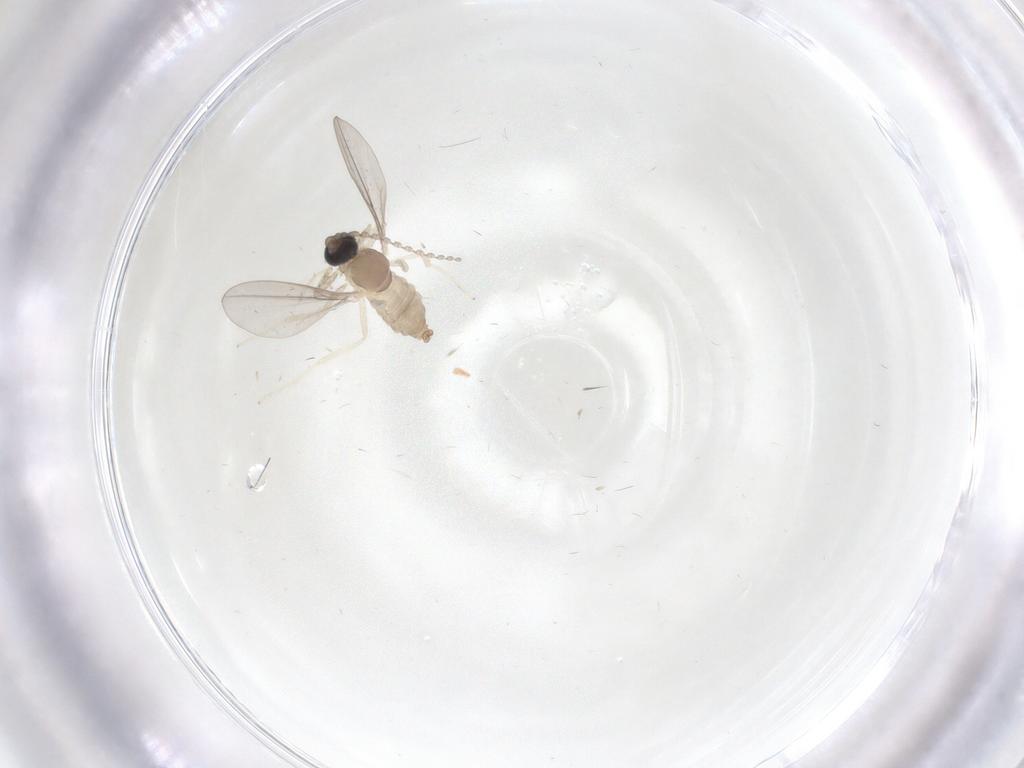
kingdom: Animalia
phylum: Arthropoda
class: Insecta
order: Diptera
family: Cecidomyiidae
